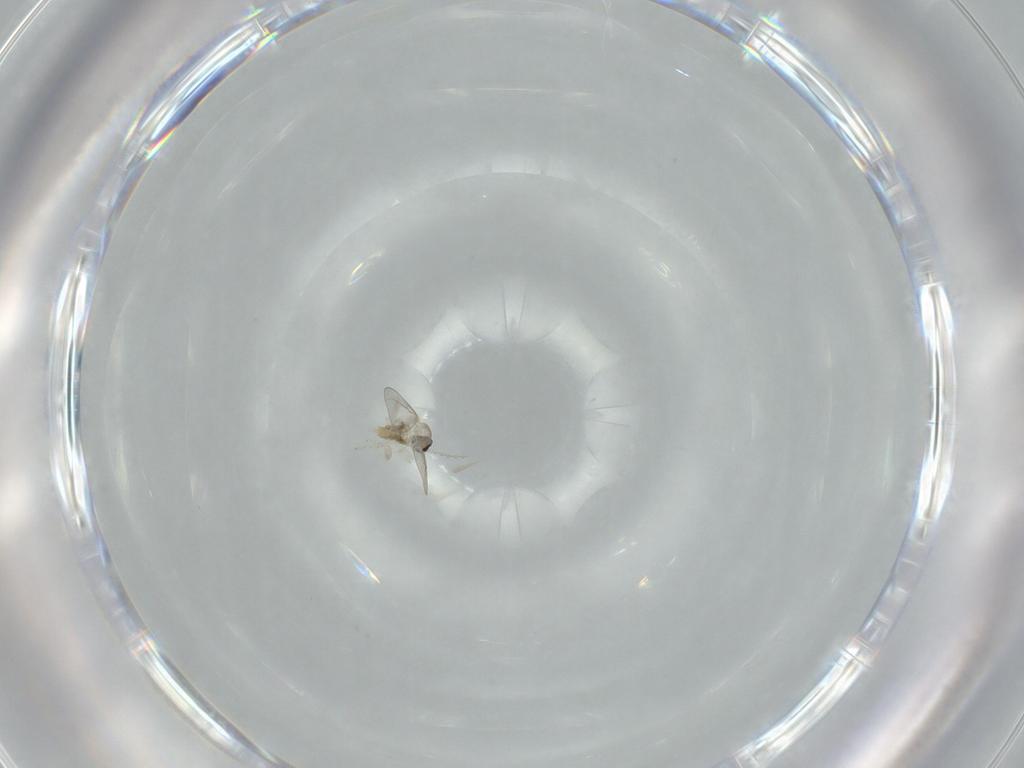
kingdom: Animalia
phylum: Arthropoda
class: Insecta
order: Diptera
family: Cecidomyiidae
